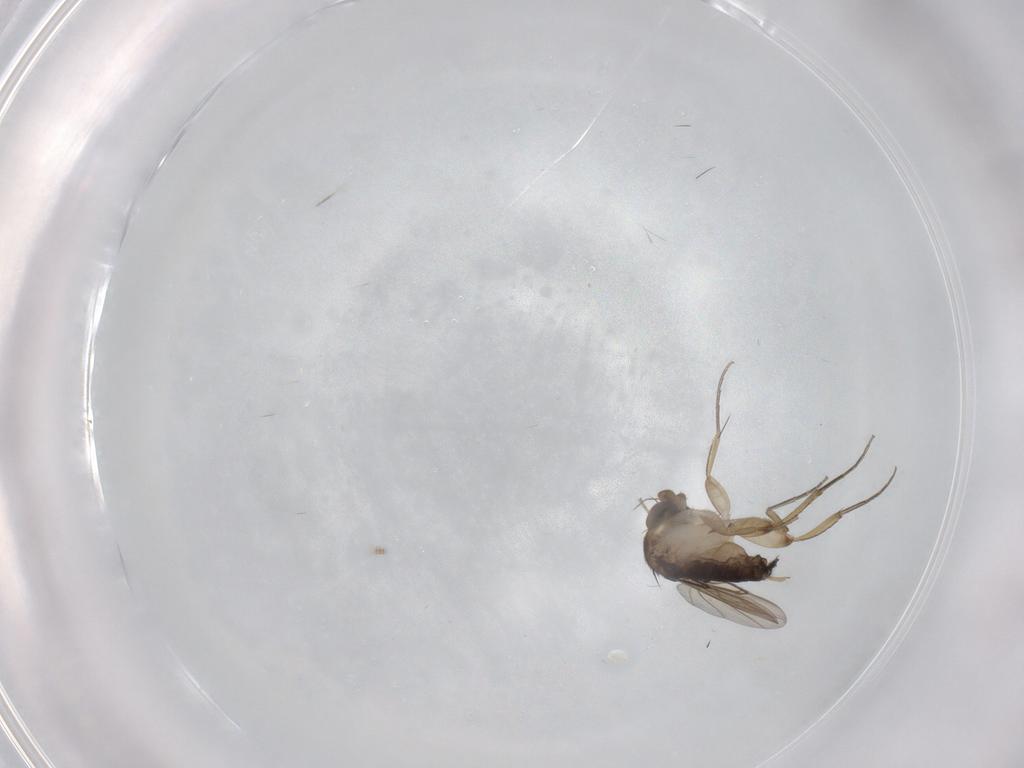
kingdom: Animalia
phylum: Arthropoda
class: Insecta
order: Diptera
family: Phoridae
